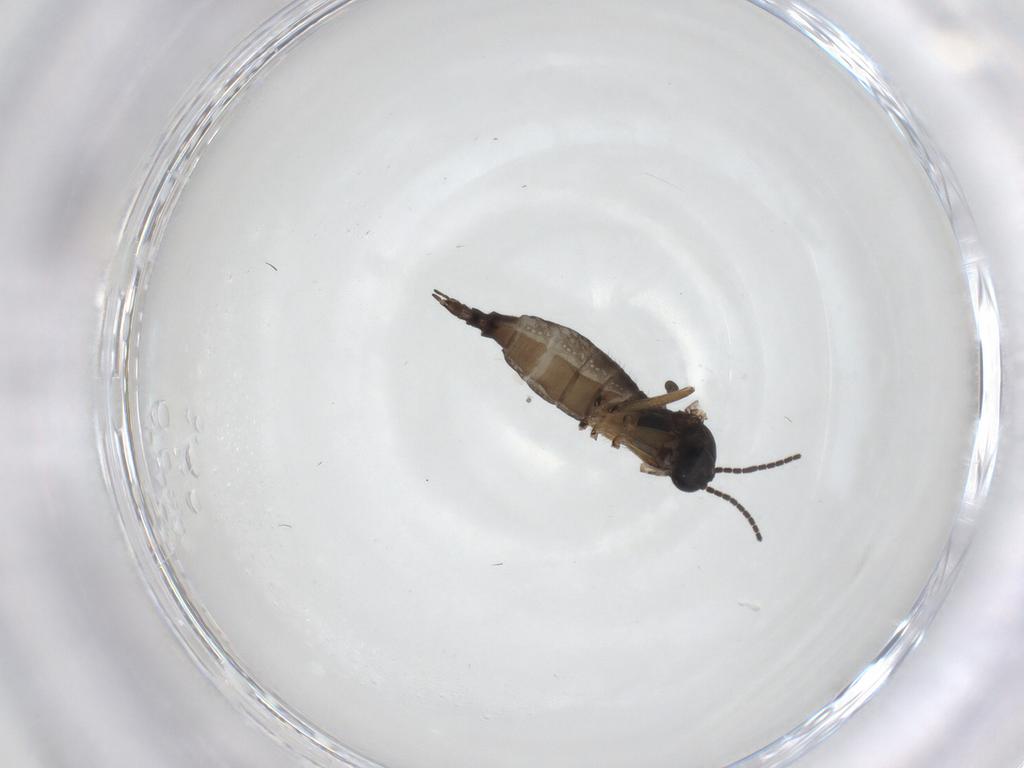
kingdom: Animalia
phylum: Arthropoda
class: Insecta
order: Diptera
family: Sciaridae
